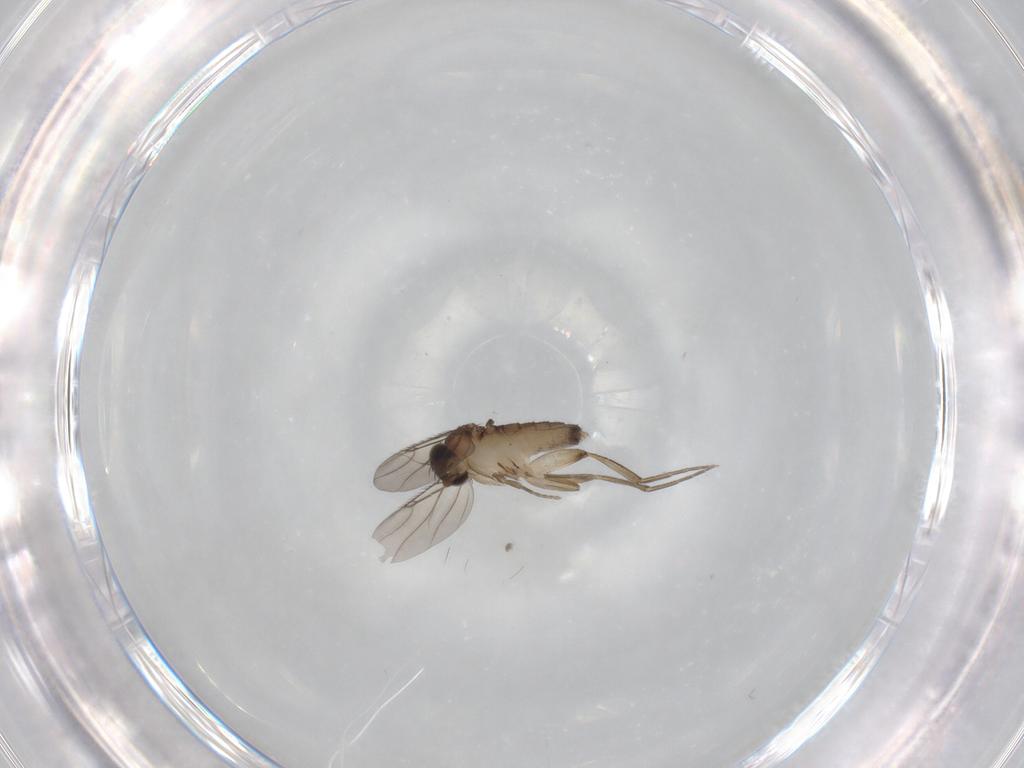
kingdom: Animalia
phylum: Arthropoda
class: Insecta
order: Diptera
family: Phoridae
